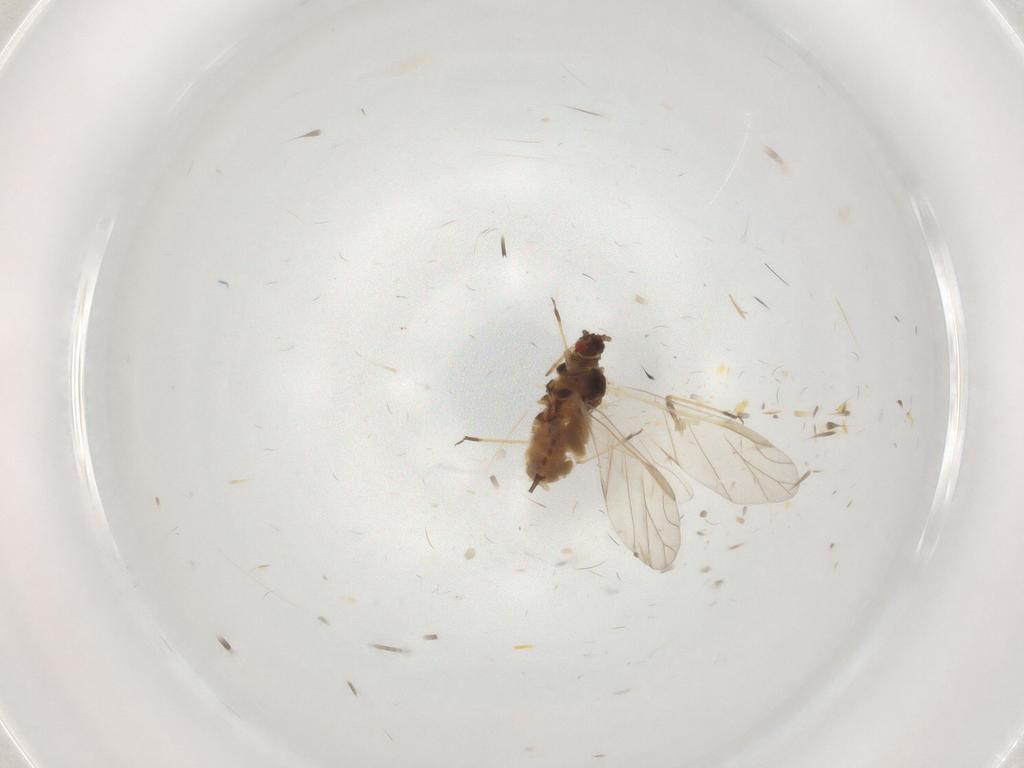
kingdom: Animalia
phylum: Arthropoda
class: Insecta
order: Hemiptera
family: Aphididae
